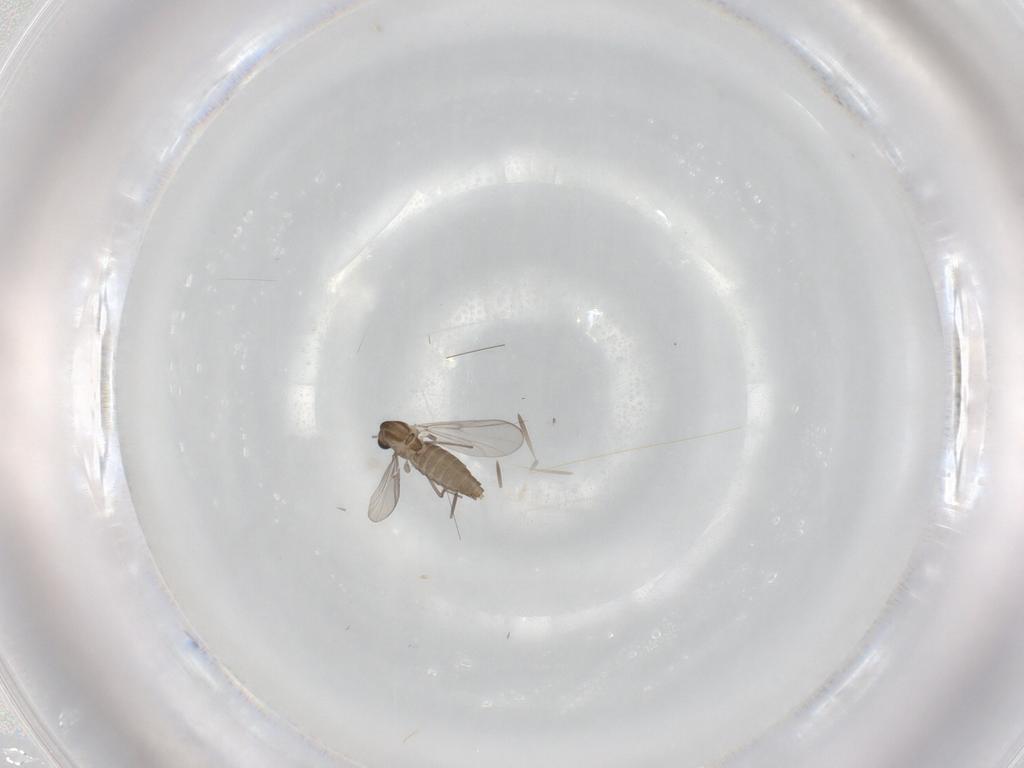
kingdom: Animalia
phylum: Arthropoda
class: Insecta
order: Diptera
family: Chironomidae
